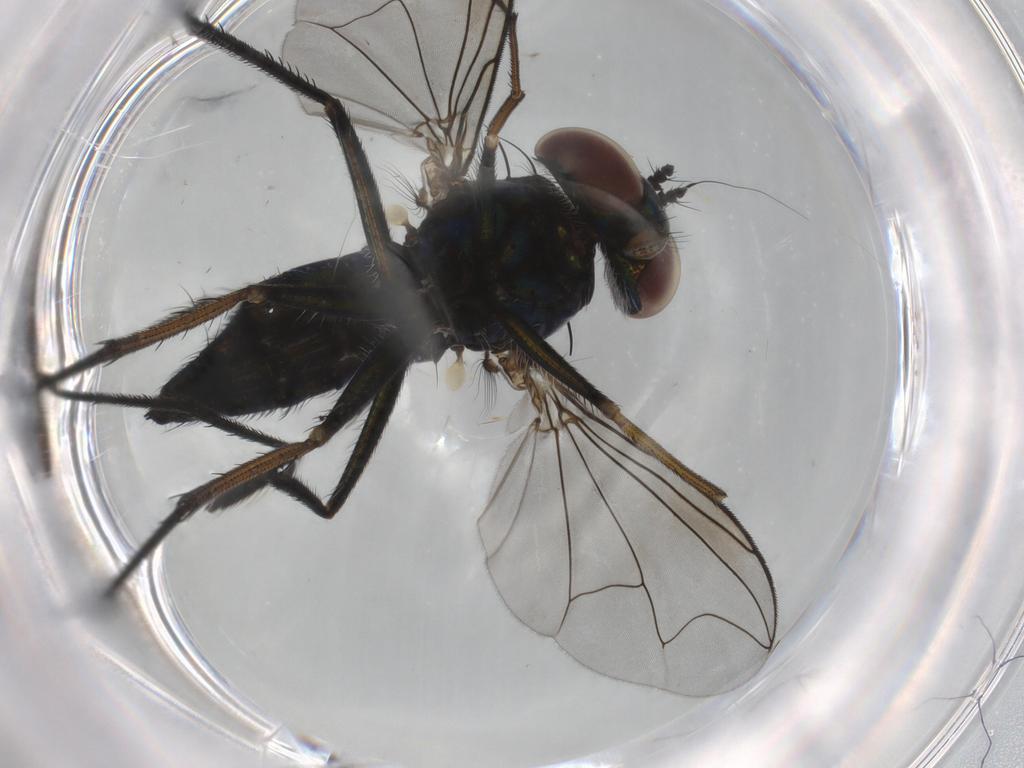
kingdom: Animalia
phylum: Arthropoda
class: Insecta
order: Diptera
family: Dolichopodidae
